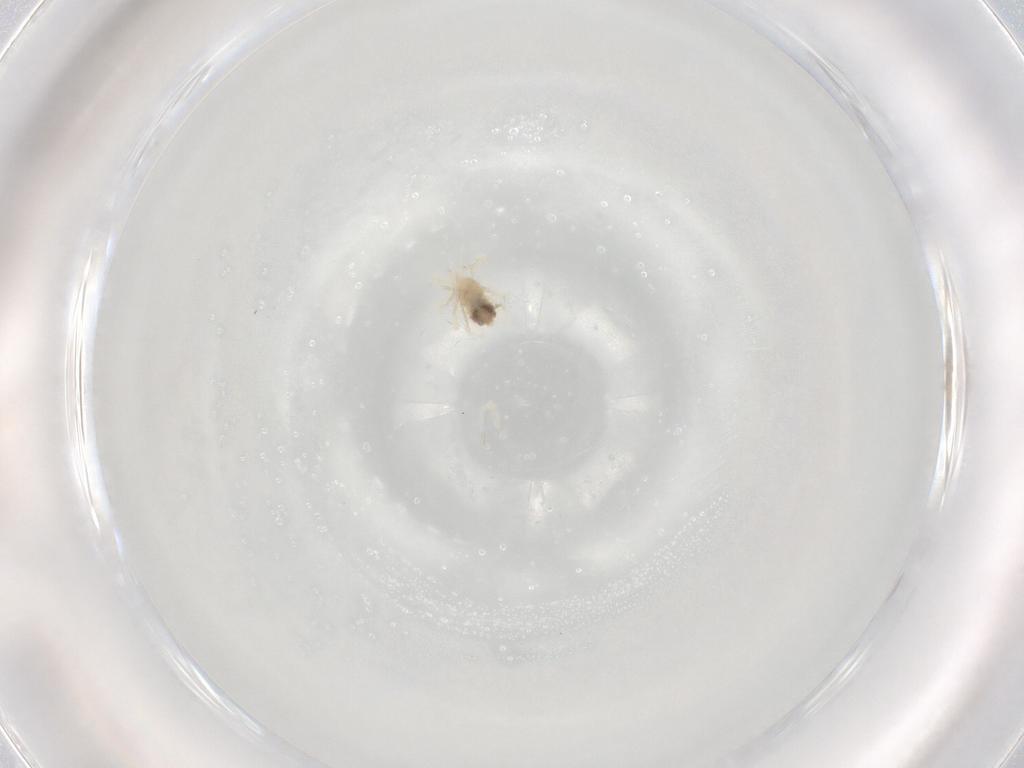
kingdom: Animalia
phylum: Arthropoda
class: Arachnida
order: Trombidiformes
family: Anystidae
